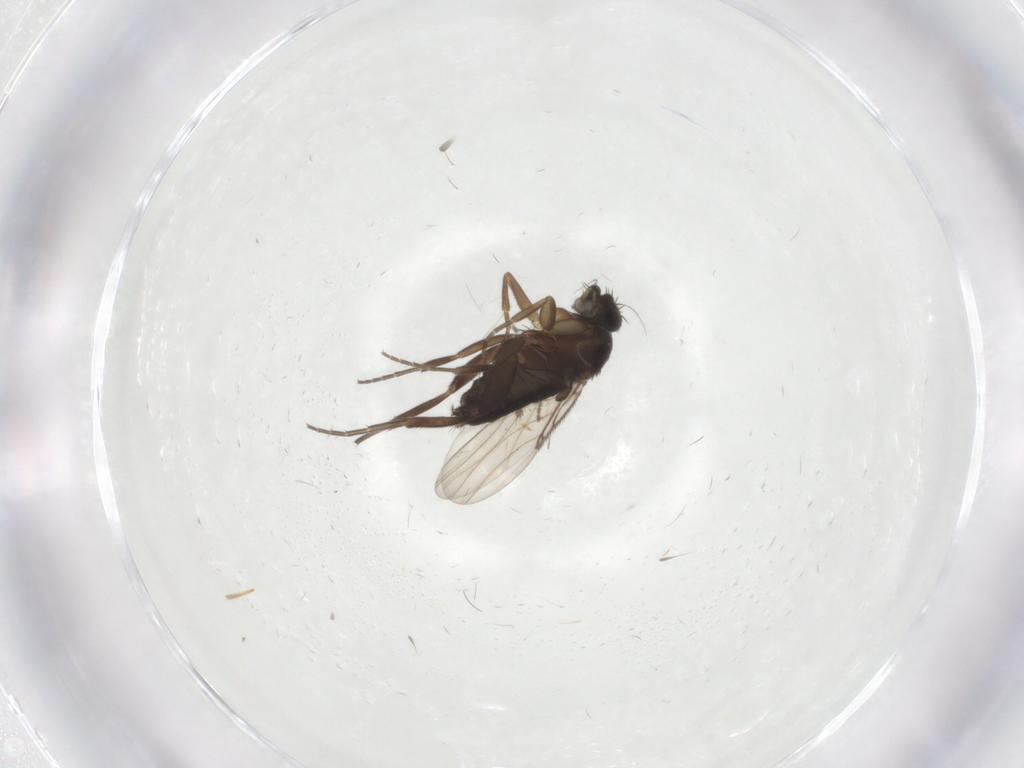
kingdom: Animalia
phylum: Arthropoda
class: Insecta
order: Diptera
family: Phoridae
